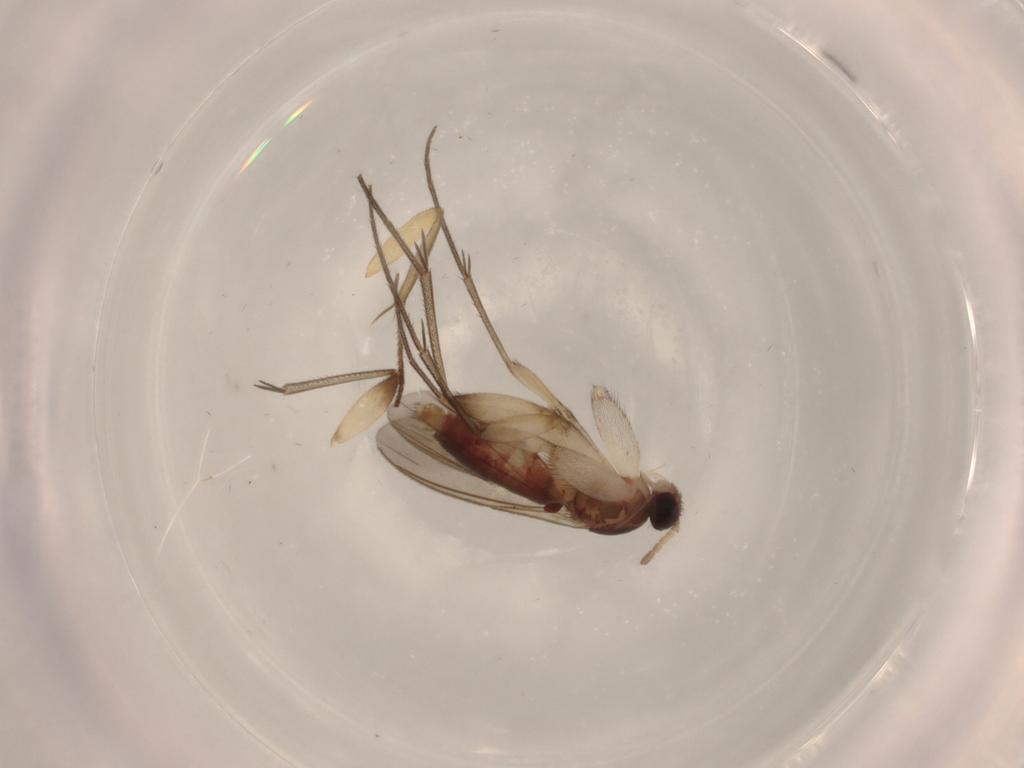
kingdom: Animalia
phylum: Arthropoda
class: Insecta
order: Diptera
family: Mycetophilidae
